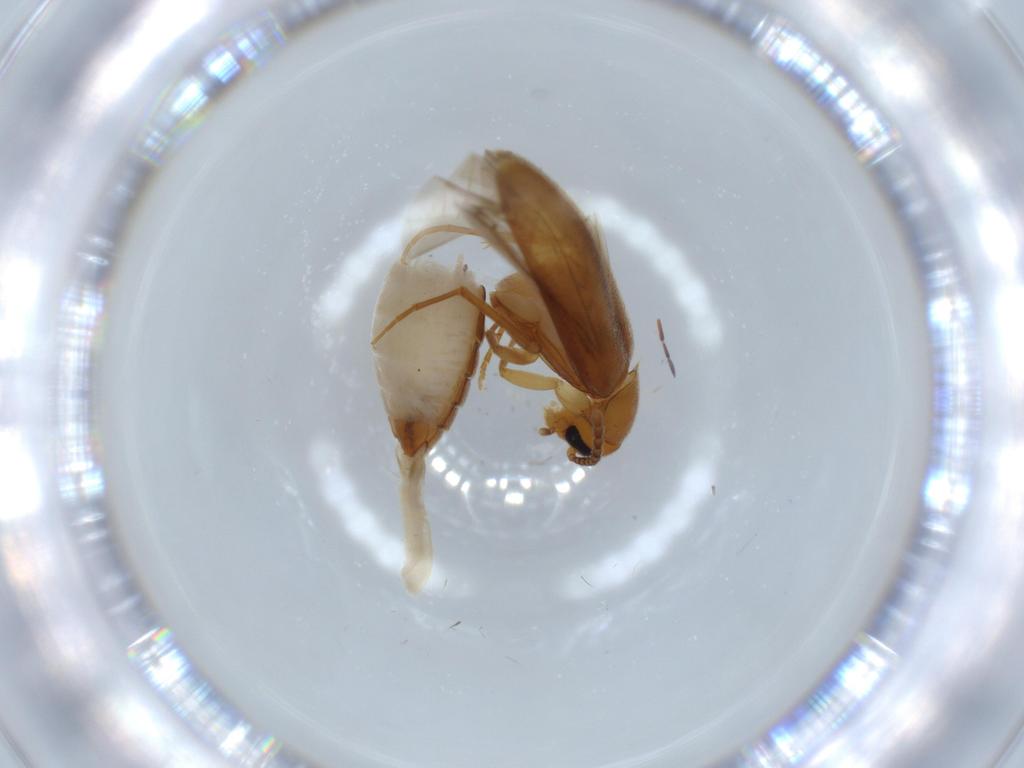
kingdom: Animalia
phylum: Arthropoda
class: Insecta
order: Coleoptera
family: Scraptiidae
